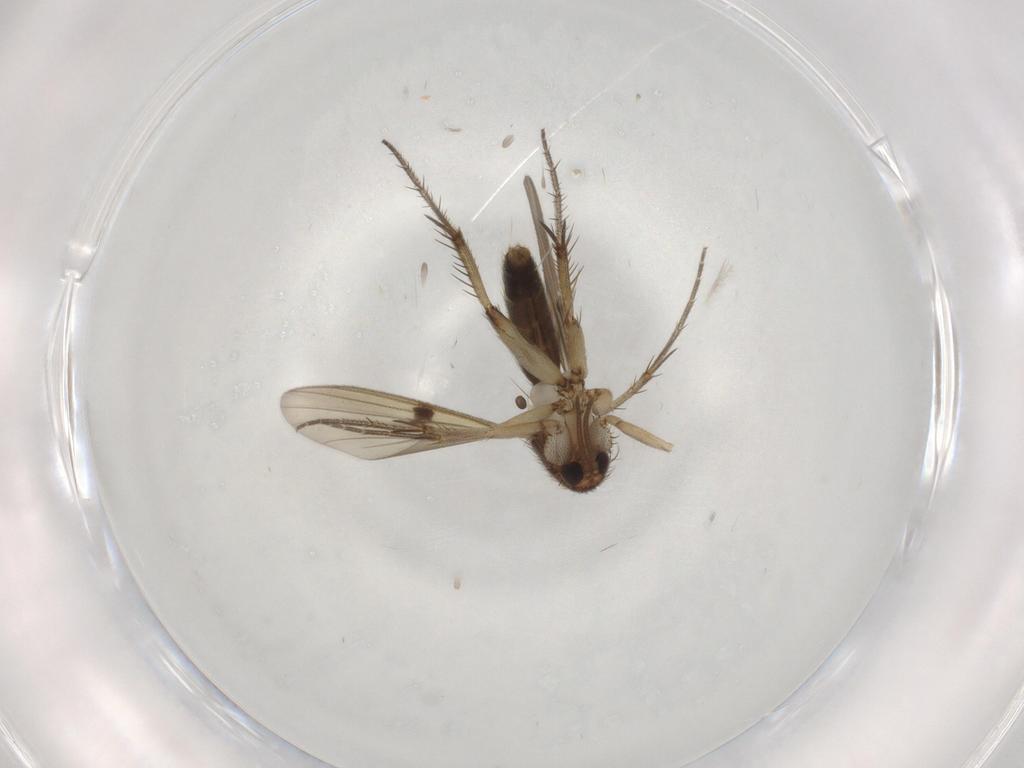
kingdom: Animalia
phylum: Arthropoda
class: Insecta
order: Diptera
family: Mycetophilidae
